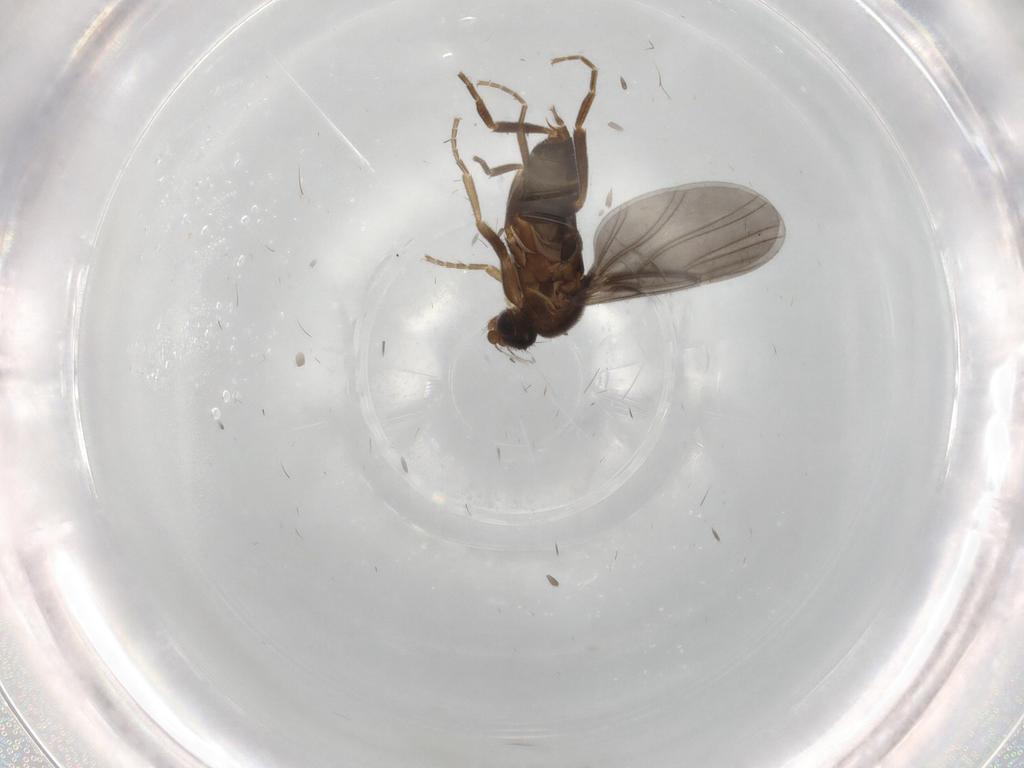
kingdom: Animalia
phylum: Arthropoda
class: Insecta
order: Diptera
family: Phoridae
